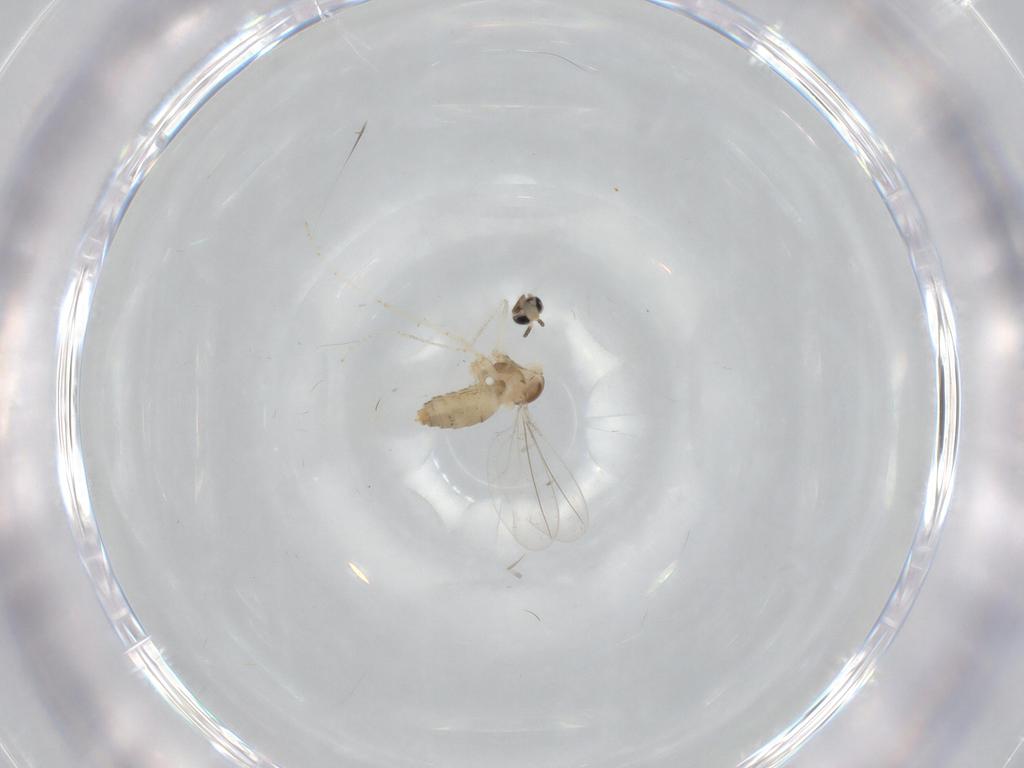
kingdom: Animalia
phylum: Arthropoda
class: Insecta
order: Diptera
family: Cecidomyiidae
